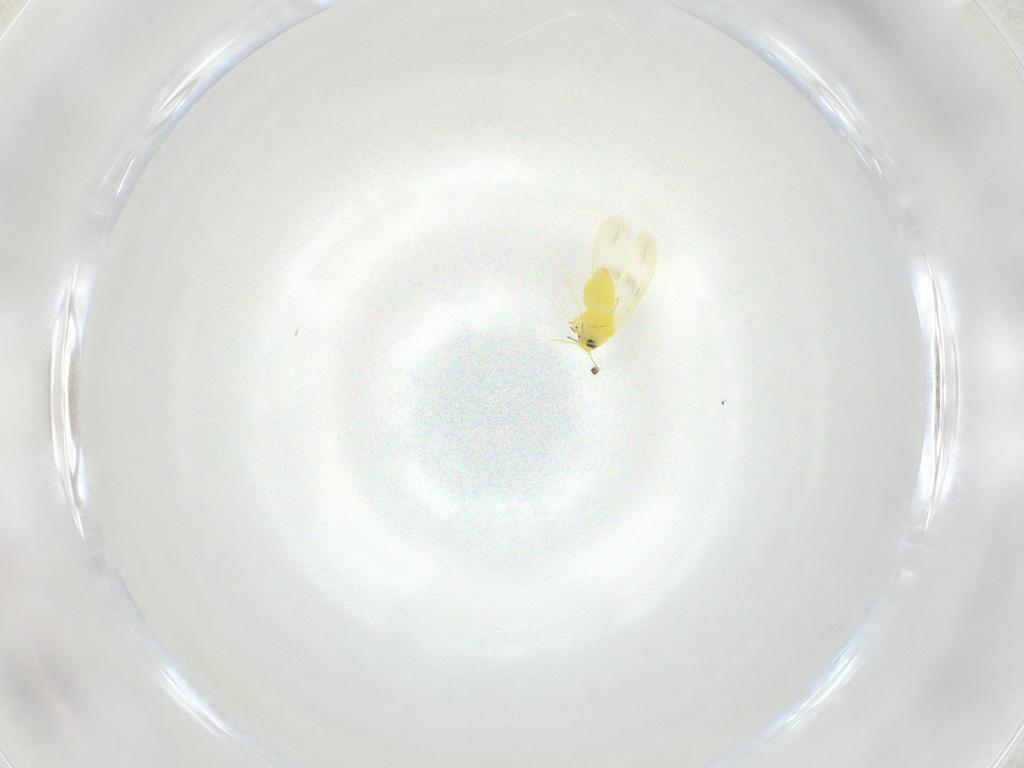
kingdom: Animalia
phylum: Arthropoda
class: Insecta
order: Hemiptera
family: Aleyrodidae
